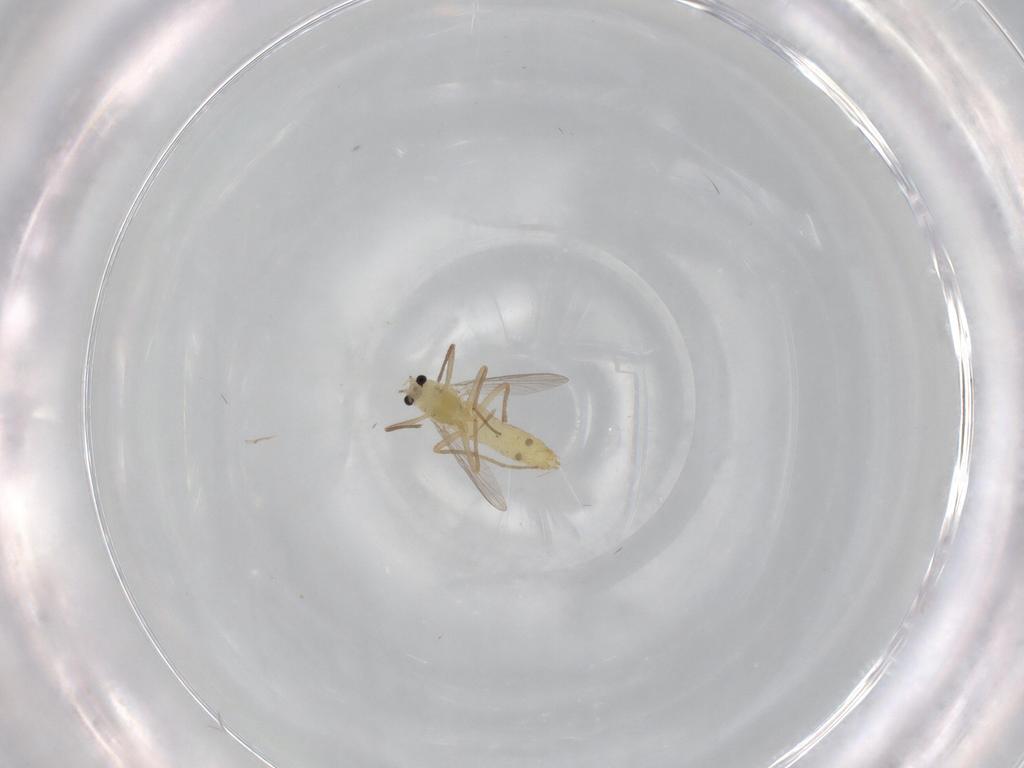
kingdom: Animalia
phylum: Arthropoda
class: Insecta
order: Diptera
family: Chironomidae
